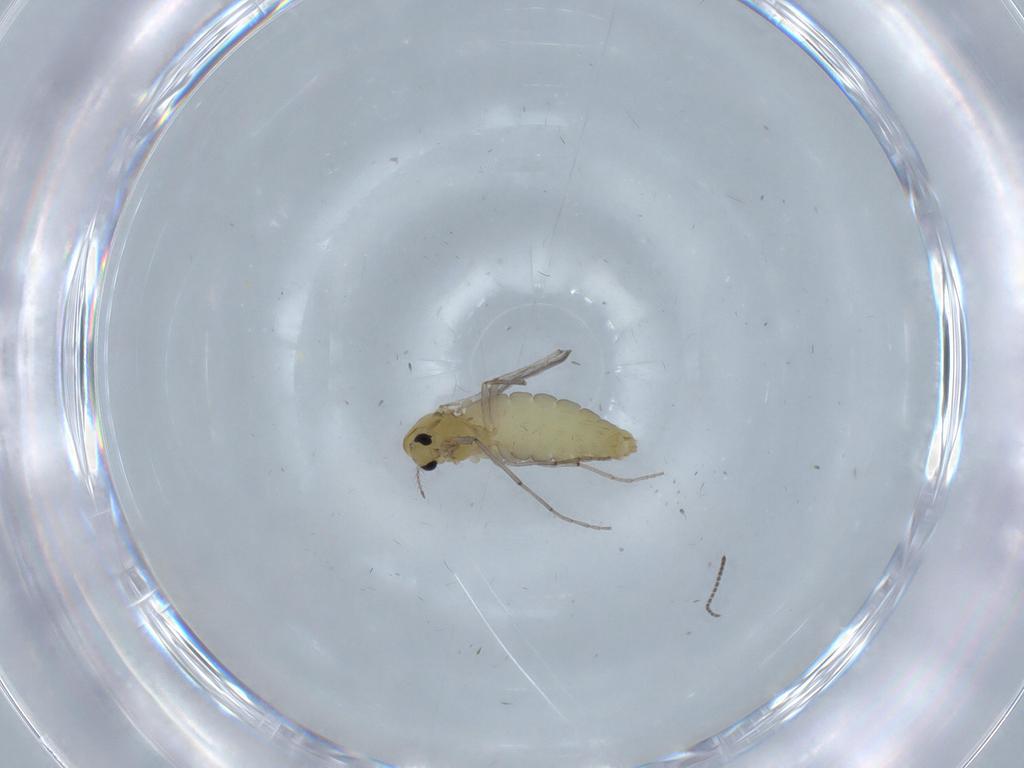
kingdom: Animalia
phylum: Arthropoda
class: Insecta
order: Diptera
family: Chironomidae
